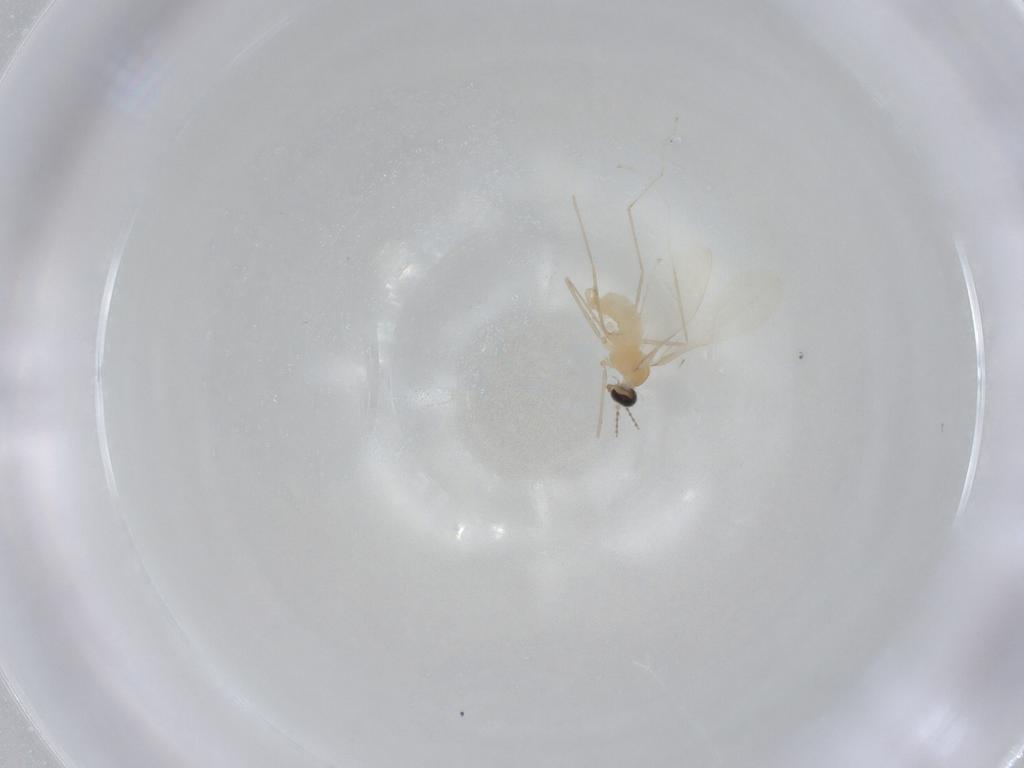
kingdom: Animalia
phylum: Arthropoda
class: Insecta
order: Diptera
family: Cecidomyiidae
